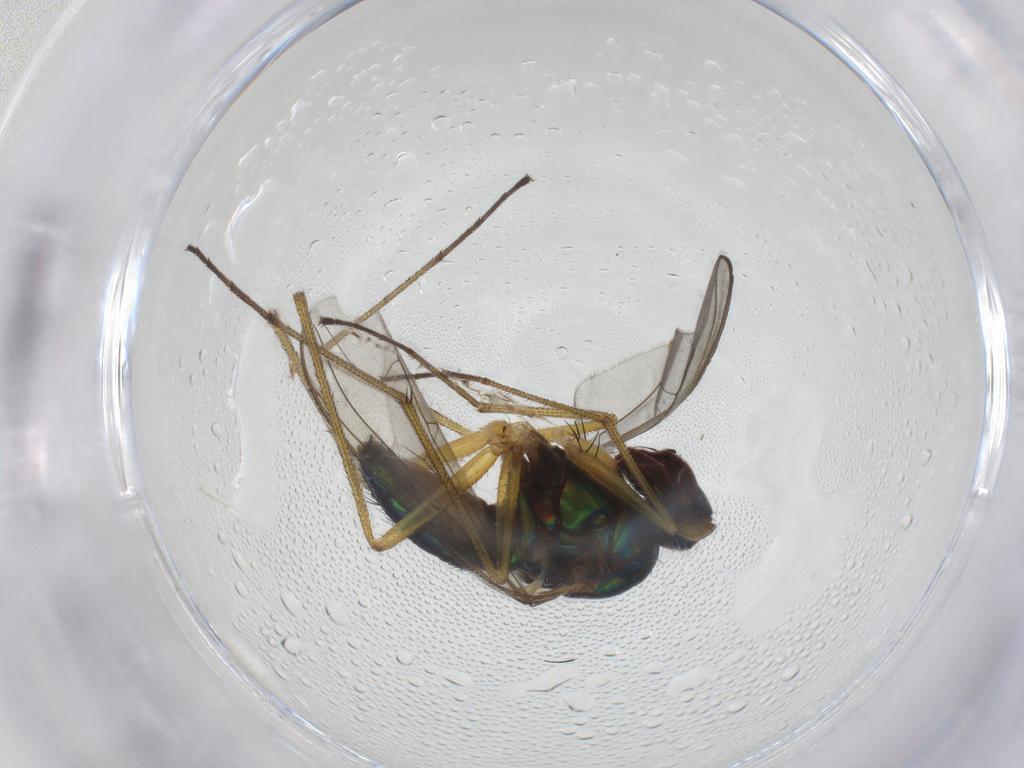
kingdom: Animalia
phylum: Arthropoda
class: Insecta
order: Diptera
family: Dolichopodidae
